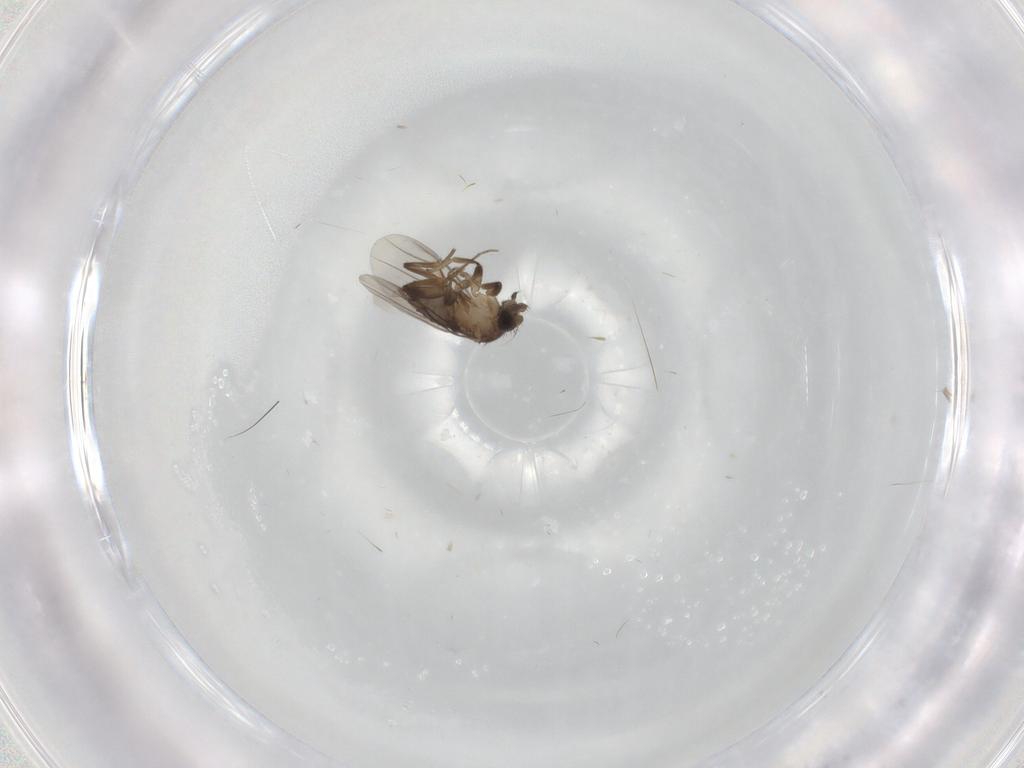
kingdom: Animalia
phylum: Arthropoda
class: Insecta
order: Diptera
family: Phoridae
